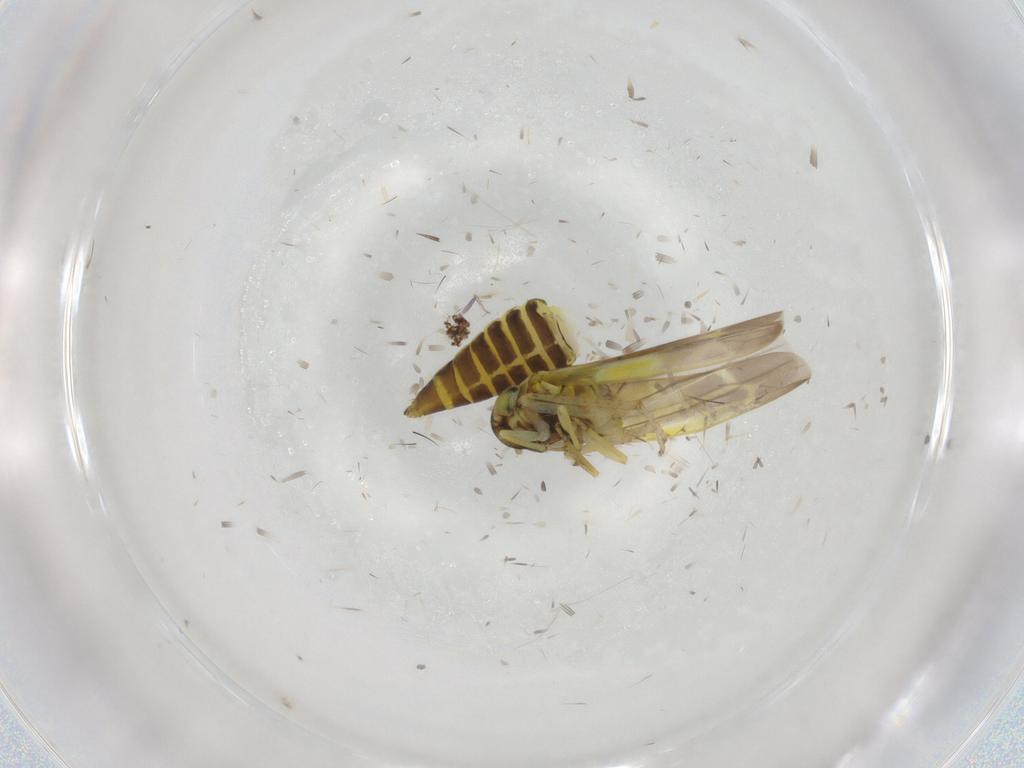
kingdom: Animalia
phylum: Arthropoda
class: Insecta
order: Hemiptera
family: Cicadellidae
